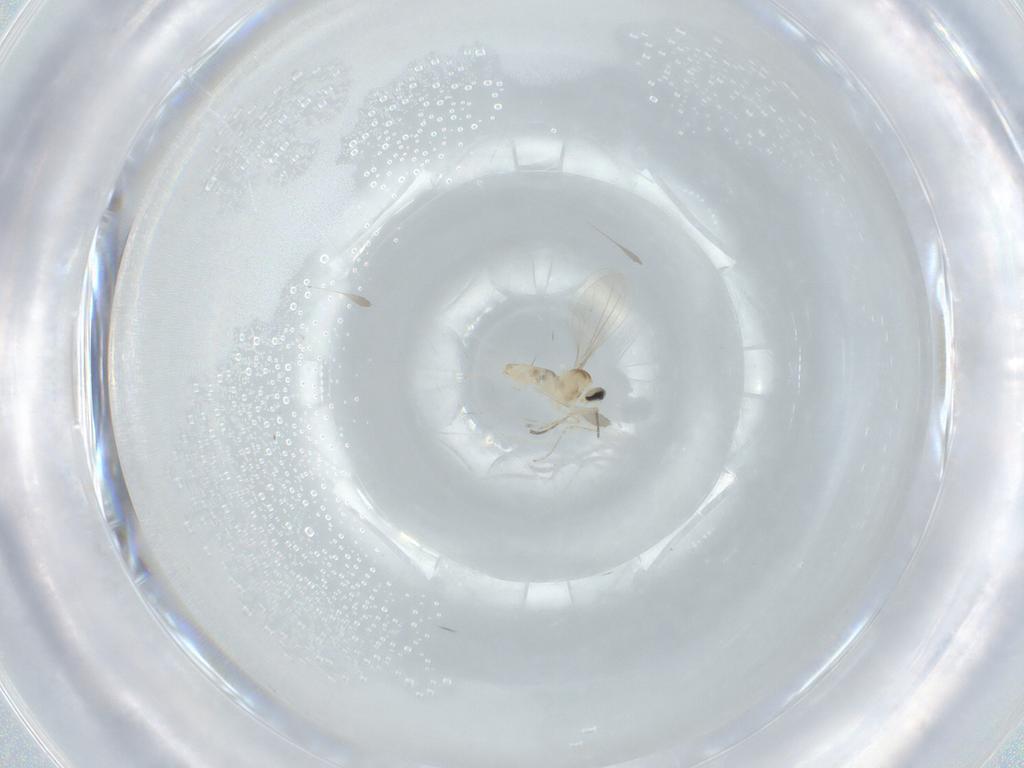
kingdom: Animalia
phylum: Arthropoda
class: Insecta
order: Diptera
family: Cecidomyiidae
